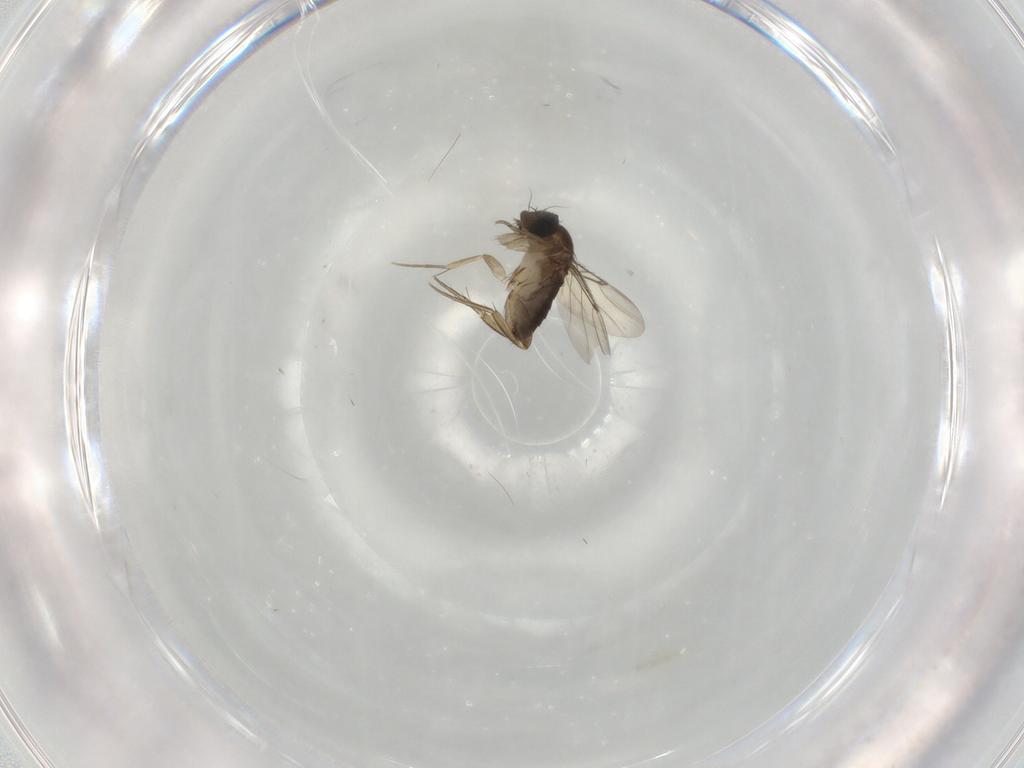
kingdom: Animalia
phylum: Arthropoda
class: Insecta
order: Diptera
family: Phoridae
